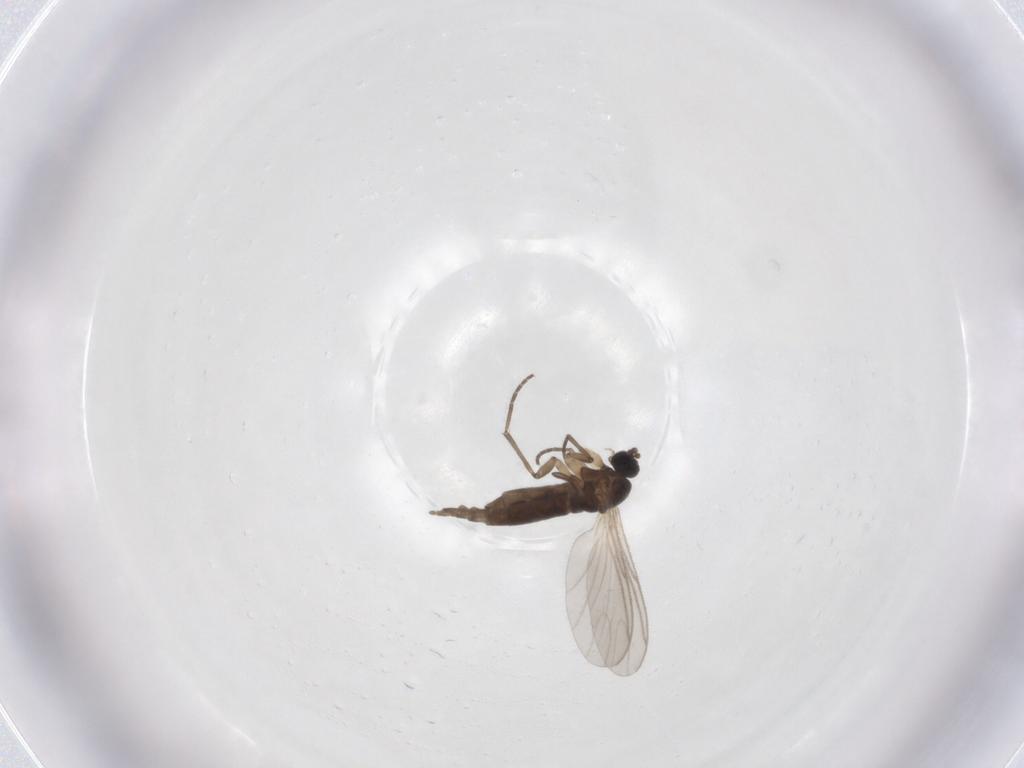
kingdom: Animalia
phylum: Arthropoda
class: Insecta
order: Diptera
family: Sciaridae
